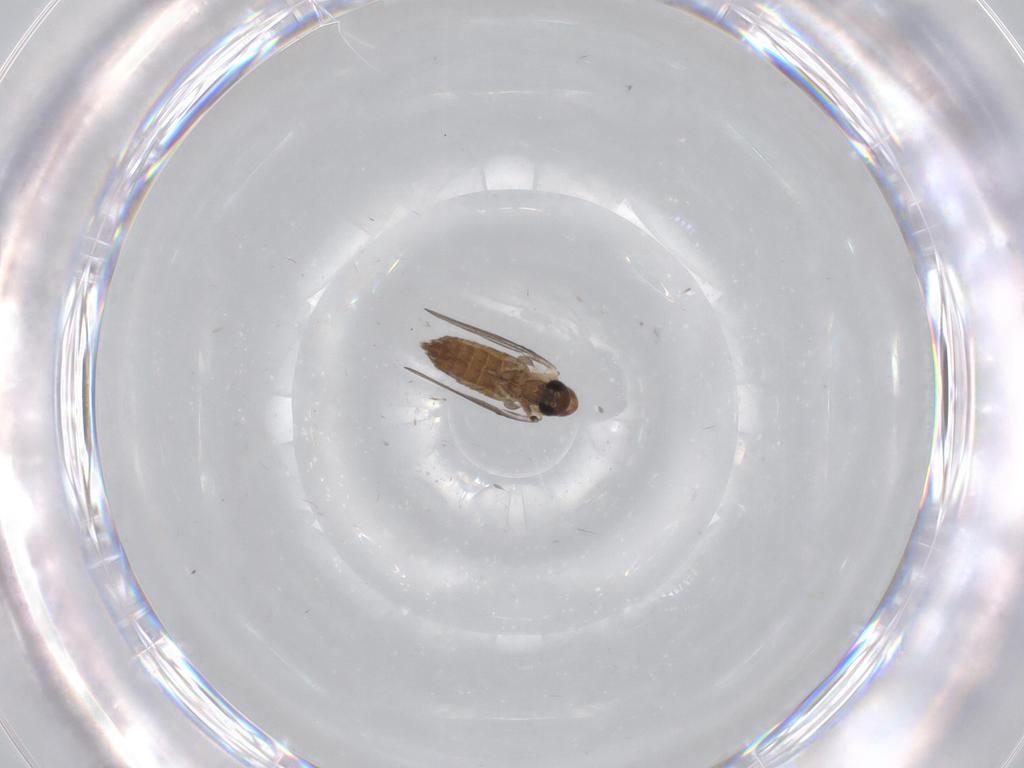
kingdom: Animalia
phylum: Arthropoda
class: Insecta
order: Diptera
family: Psychodidae
